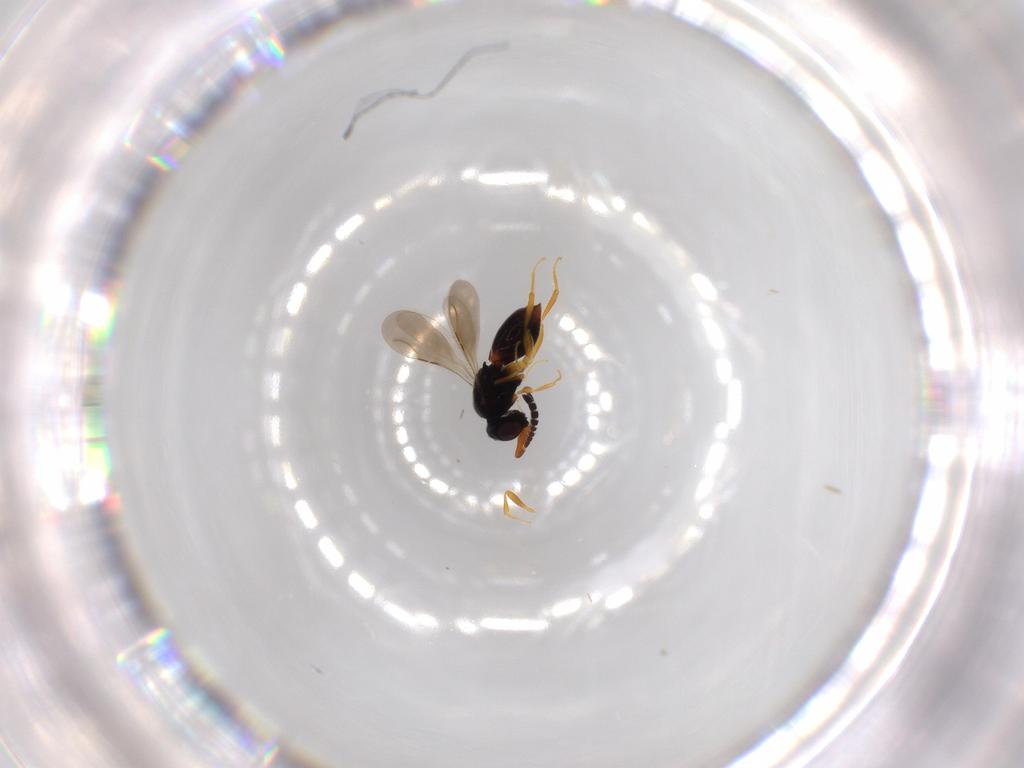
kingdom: Animalia
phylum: Arthropoda
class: Insecta
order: Hymenoptera
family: Ceraphronidae
